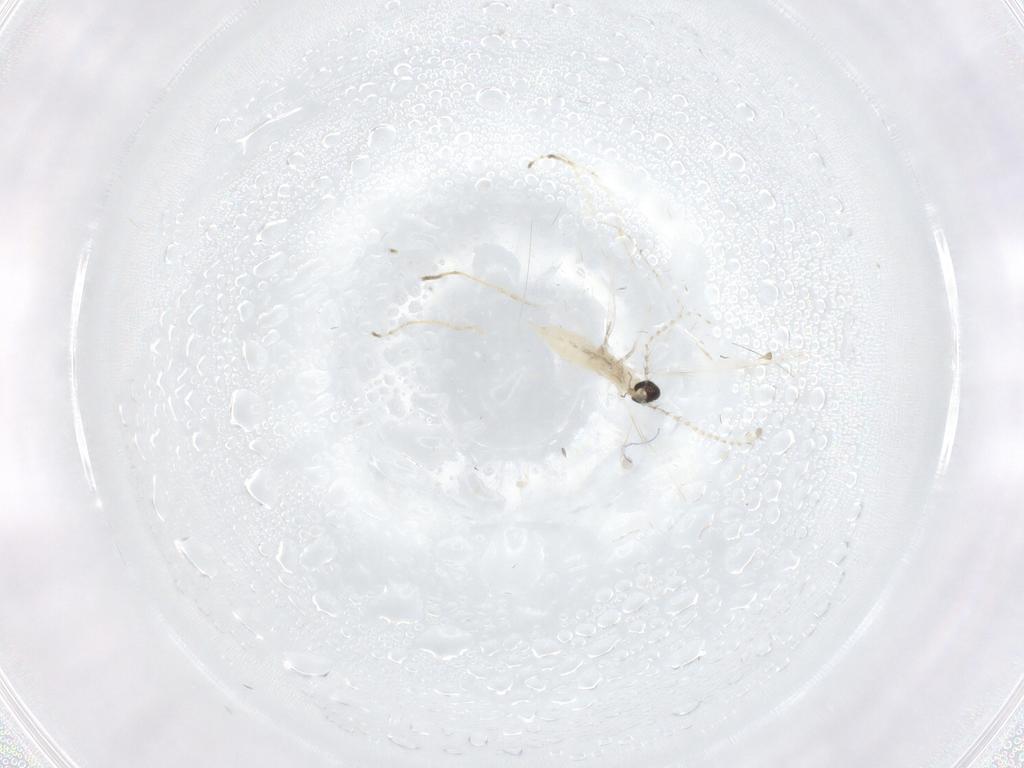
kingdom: Animalia
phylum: Arthropoda
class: Insecta
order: Diptera
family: Cecidomyiidae
